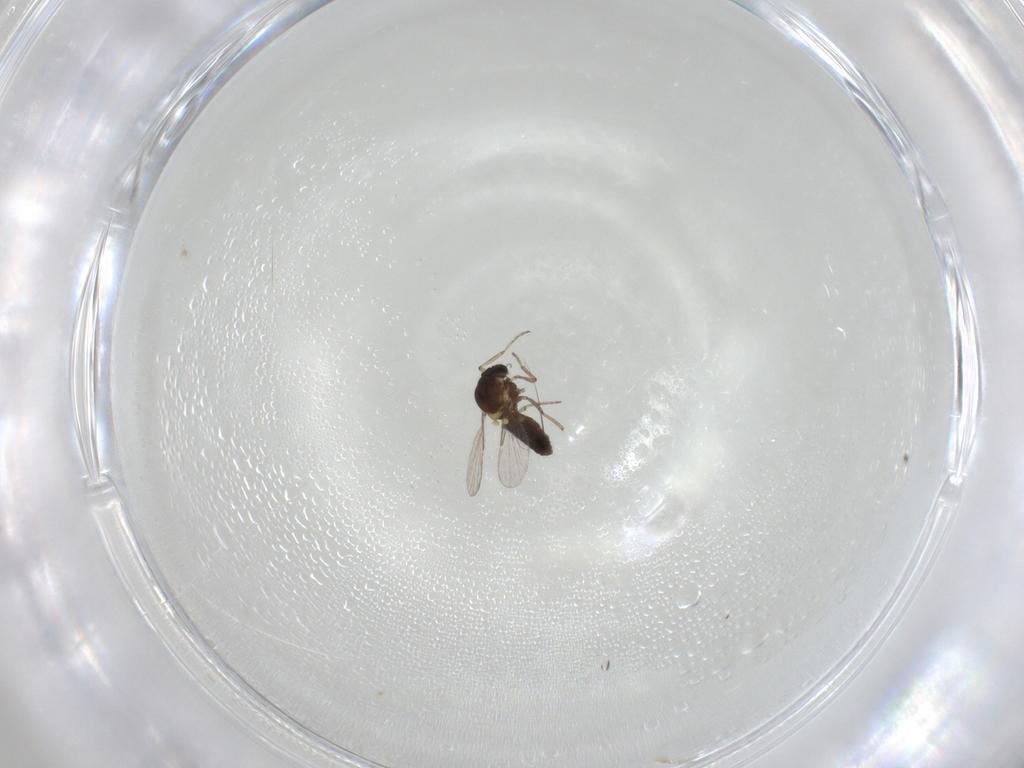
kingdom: Animalia
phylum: Arthropoda
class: Insecta
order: Diptera
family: Ceratopogonidae
